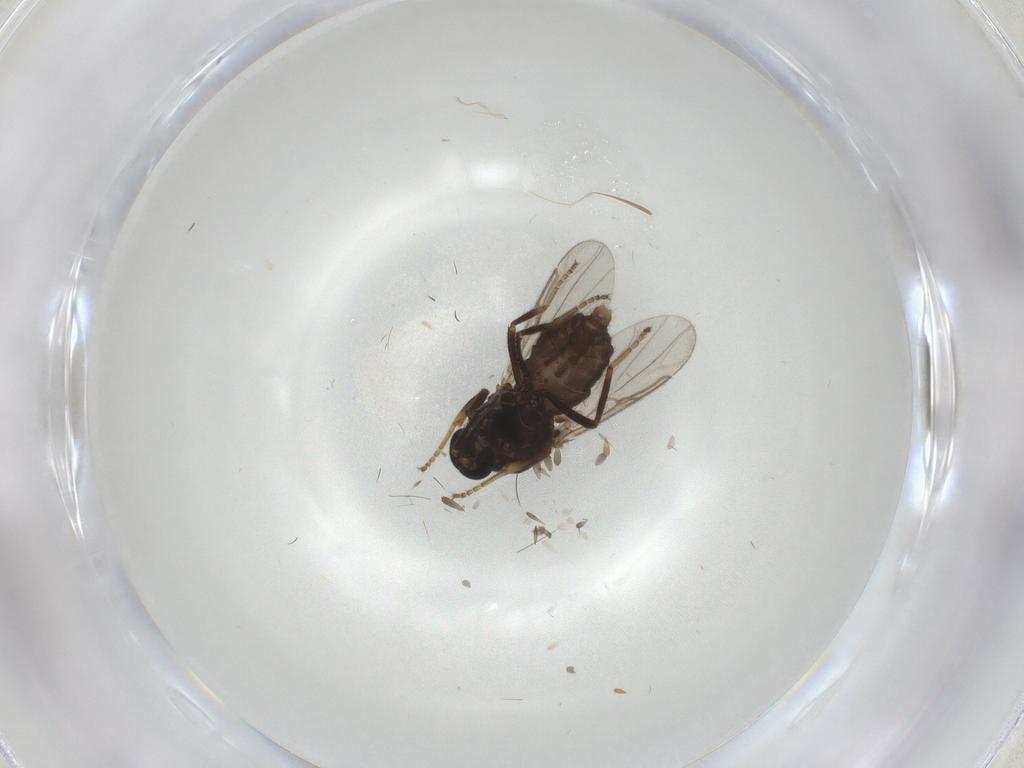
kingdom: Animalia
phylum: Arthropoda
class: Insecta
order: Diptera
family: Ceratopogonidae
